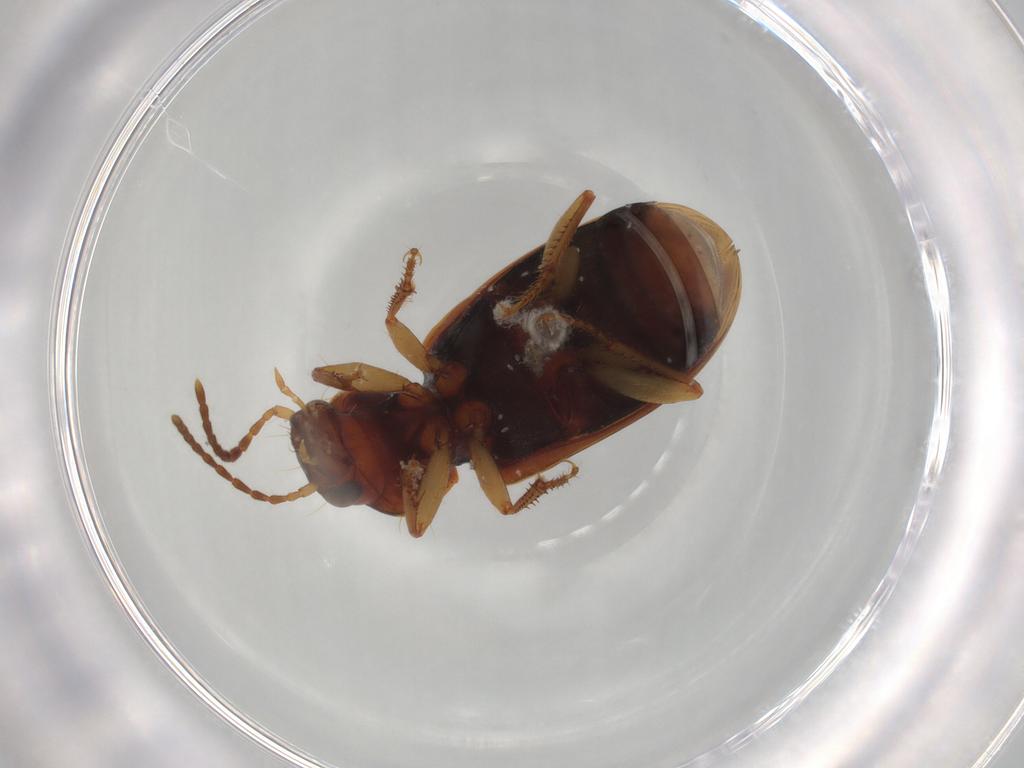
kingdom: Animalia
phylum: Arthropoda
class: Insecta
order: Coleoptera
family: Carabidae
